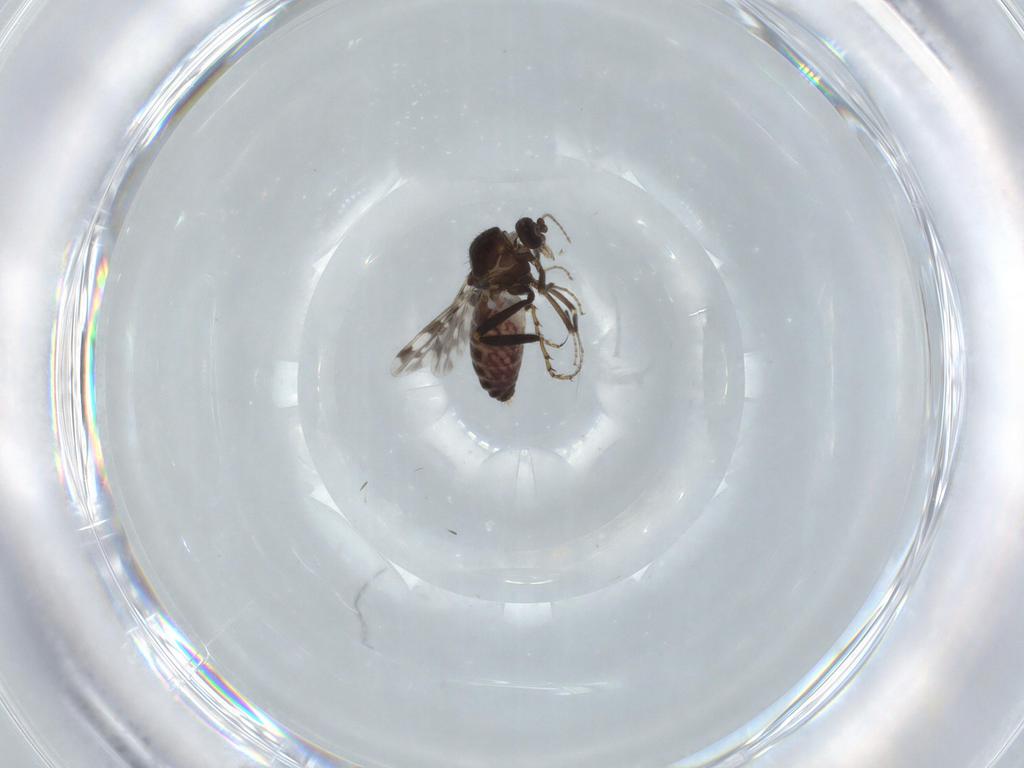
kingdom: Animalia
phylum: Arthropoda
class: Insecta
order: Diptera
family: Ceratopogonidae
